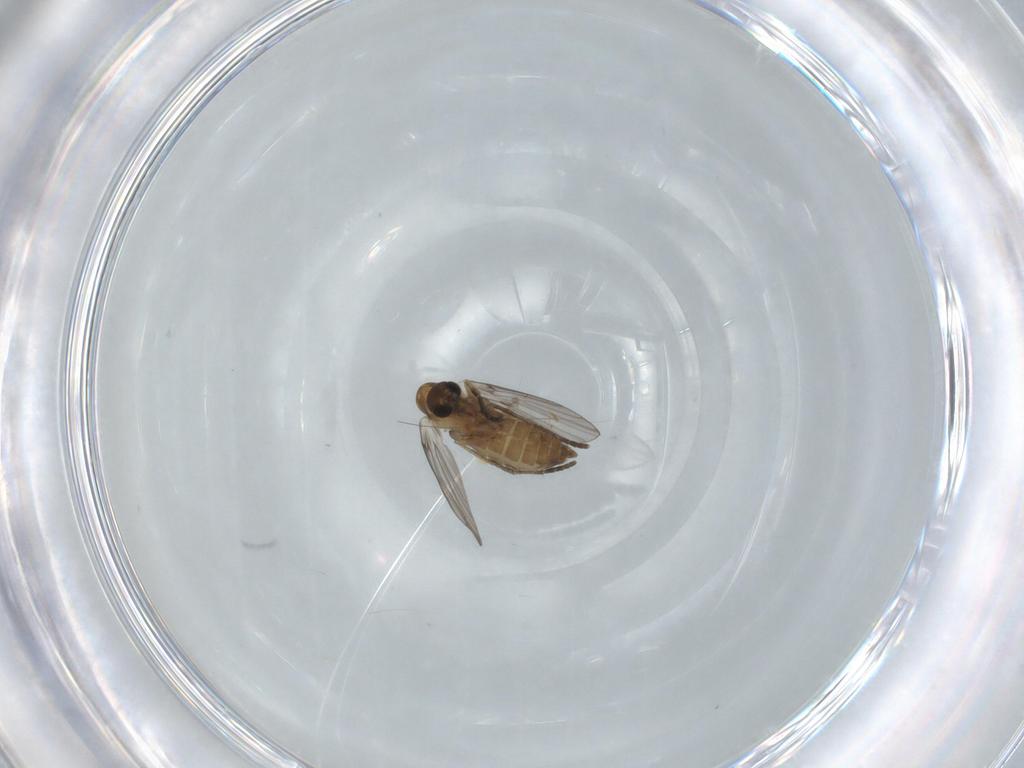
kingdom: Animalia
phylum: Arthropoda
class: Insecta
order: Diptera
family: Psychodidae
